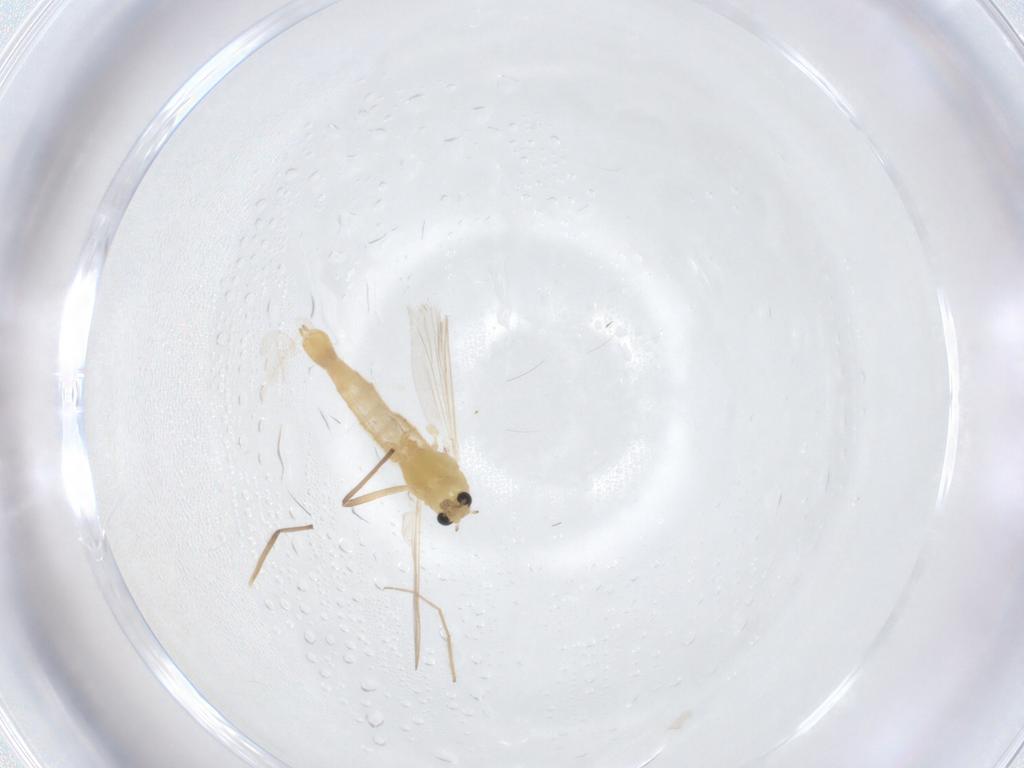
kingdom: Animalia
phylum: Arthropoda
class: Insecta
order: Diptera
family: Chironomidae
